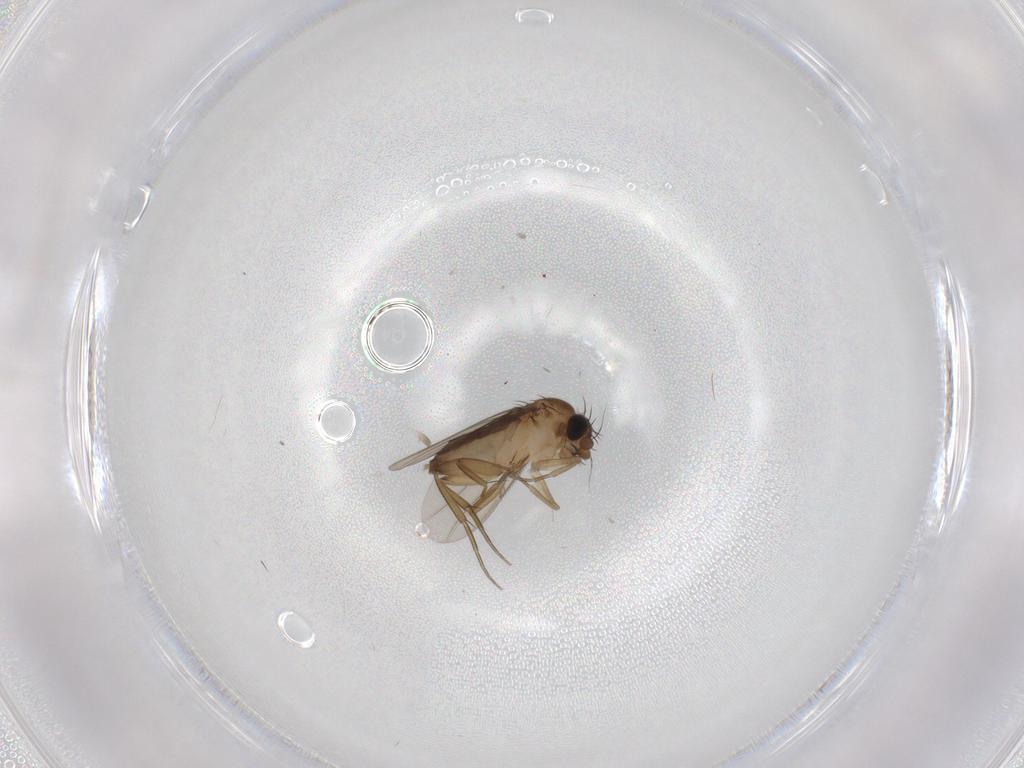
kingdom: Animalia
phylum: Arthropoda
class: Insecta
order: Diptera
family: Phoridae
